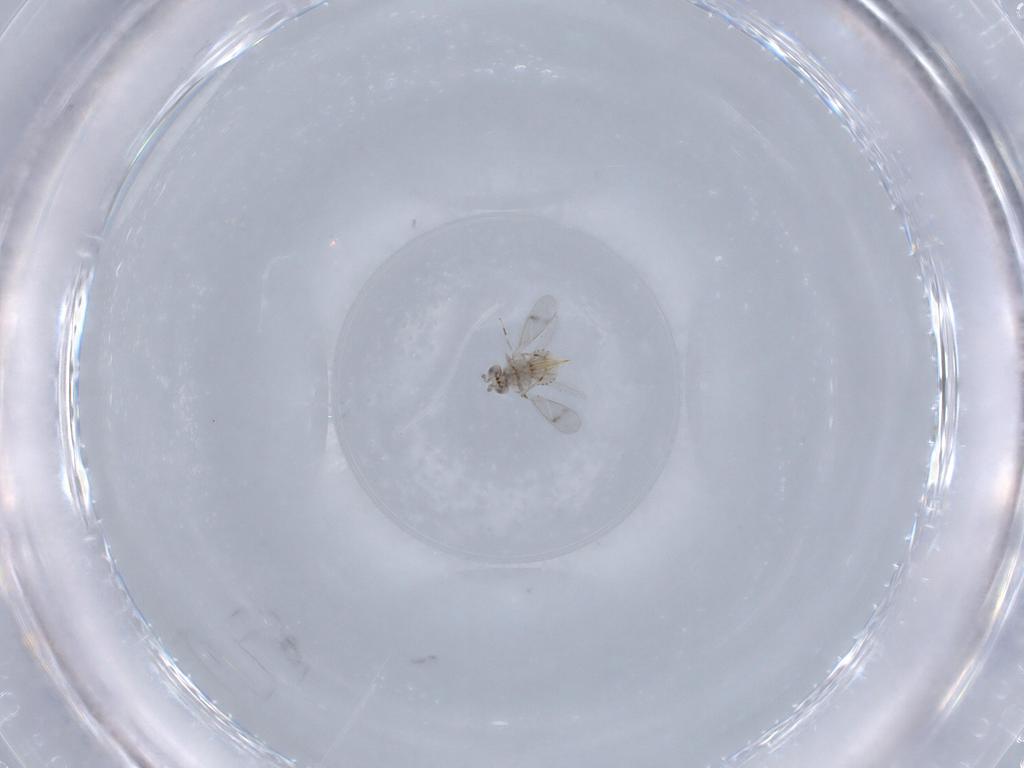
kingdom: Animalia
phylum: Arthropoda
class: Insecta
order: Hymenoptera
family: Aphelinidae
